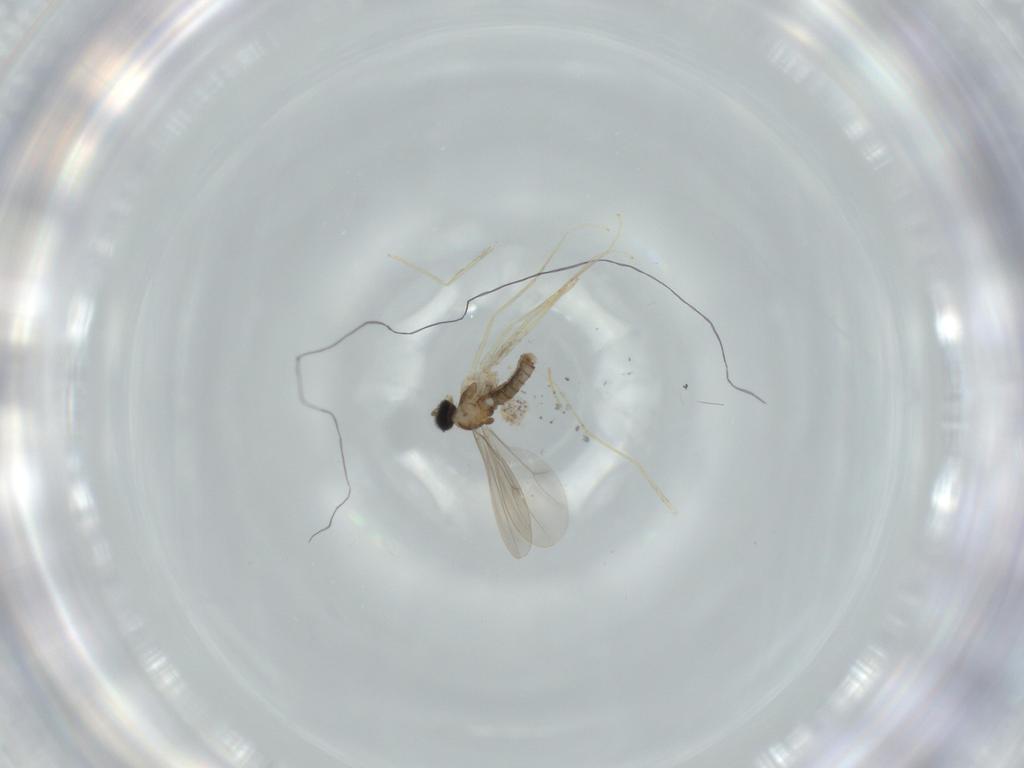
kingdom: Animalia
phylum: Arthropoda
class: Insecta
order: Diptera
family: Cecidomyiidae
